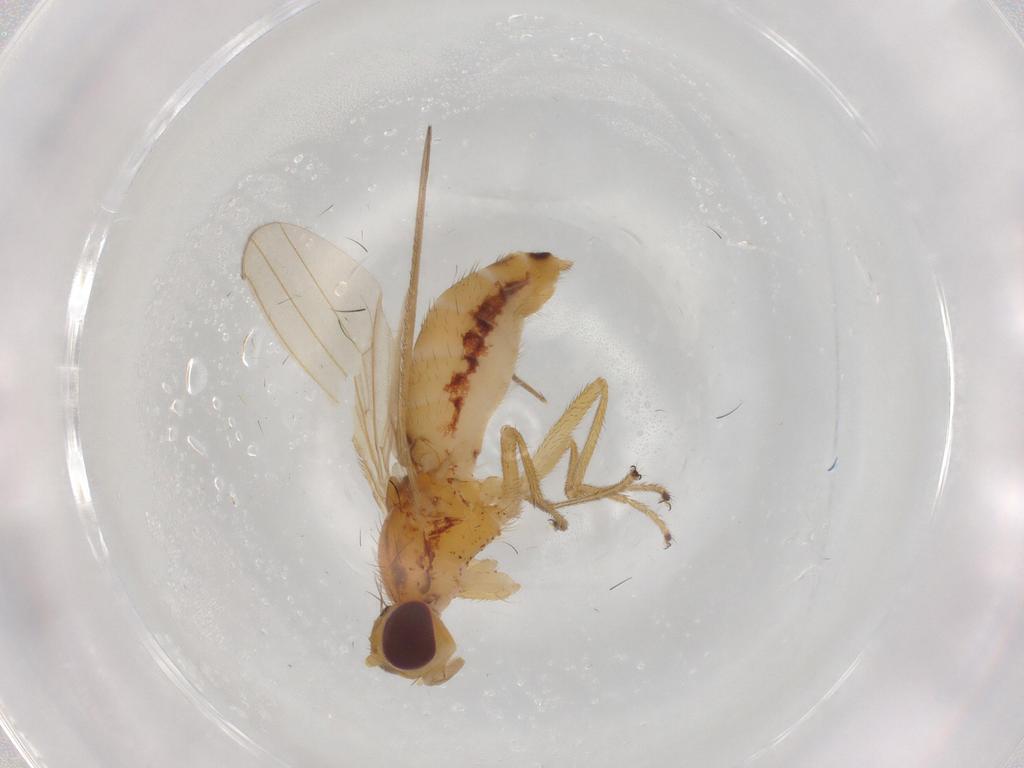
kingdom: Animalia
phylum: Arthropoda
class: Insecta
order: Diptera
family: Anthomyzidae
